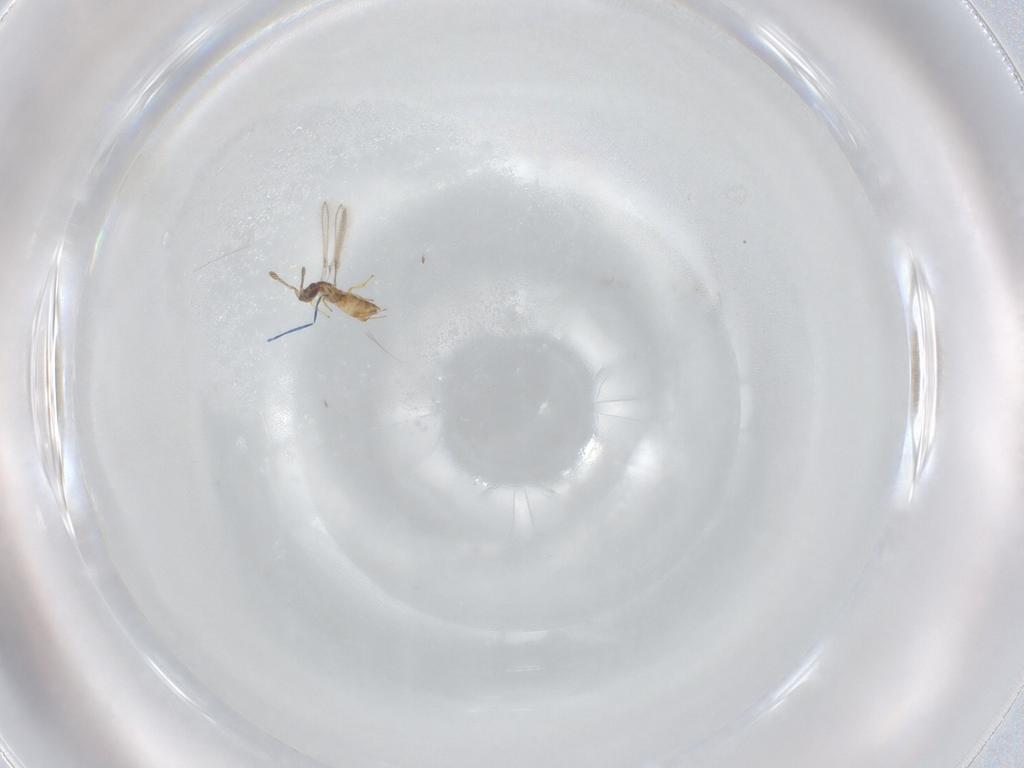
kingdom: Animalia
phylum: Arthropoda
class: Insecta
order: Hymenoptera
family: Mymaridae
